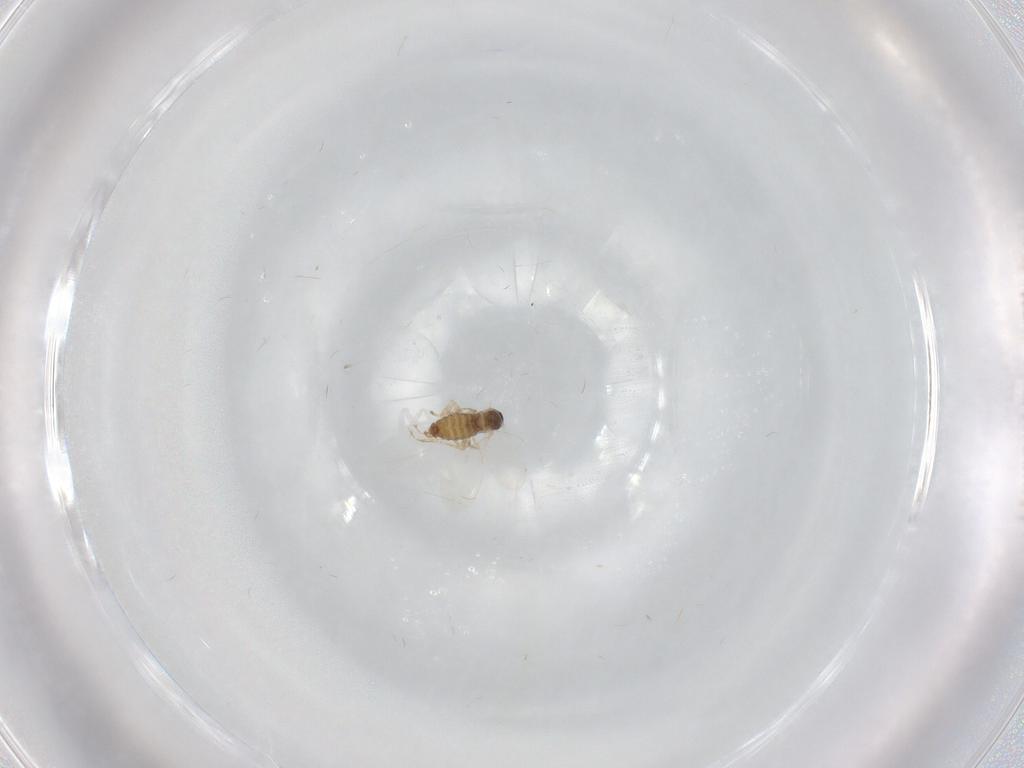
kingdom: Animalia
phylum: Arthropoda
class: Insecta
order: Diptera
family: Cecidomyiidae
